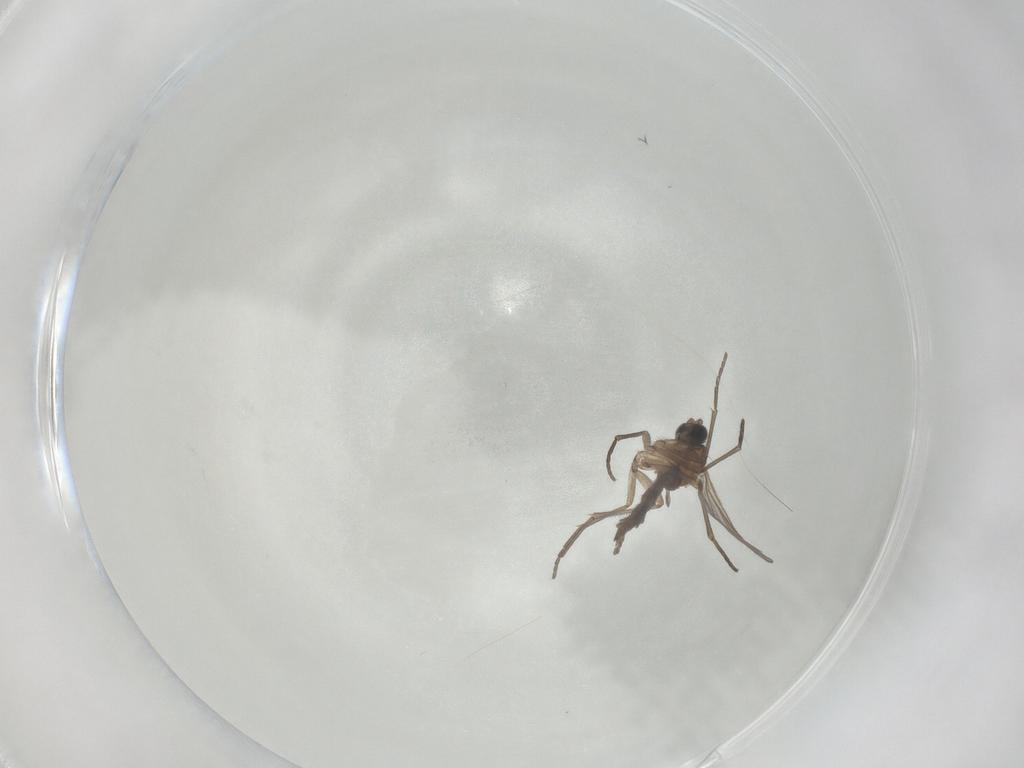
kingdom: Animalia
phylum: Arthropoda
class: Insecta
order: Diptera
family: Sciaridae
